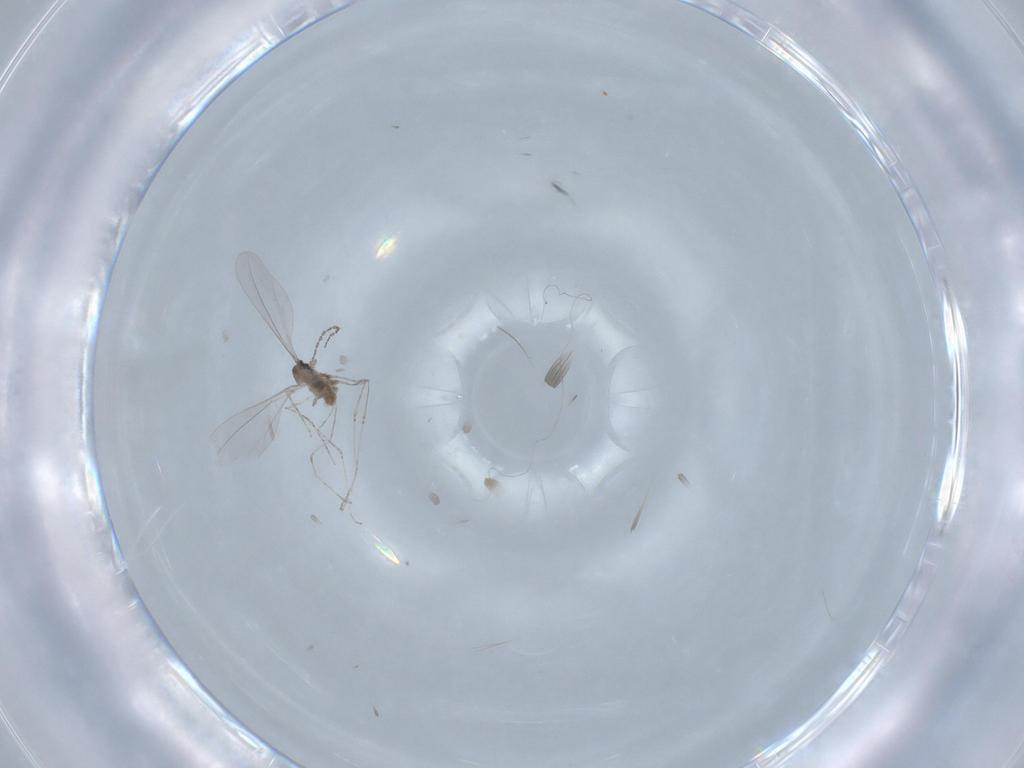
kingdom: Animalia
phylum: Arthropoda
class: Insecta
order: Diptera
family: Cecidomyiidae
